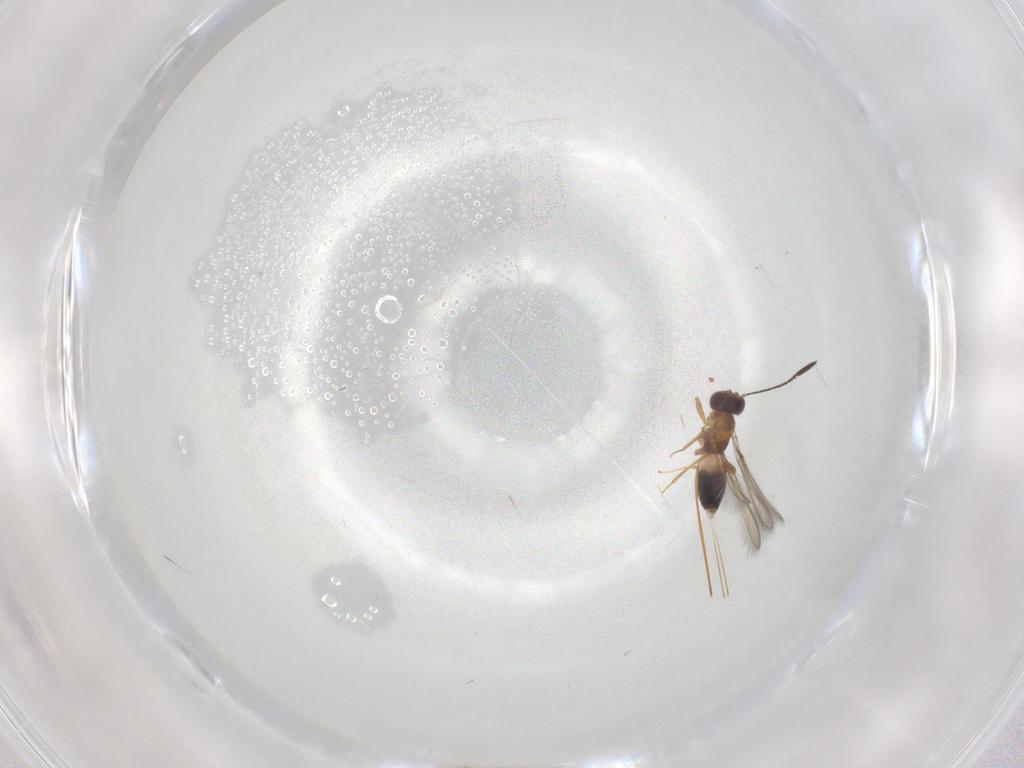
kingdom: Animalia
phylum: Arthropoda
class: Insecta
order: Hymenoptera
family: Mymaridae
